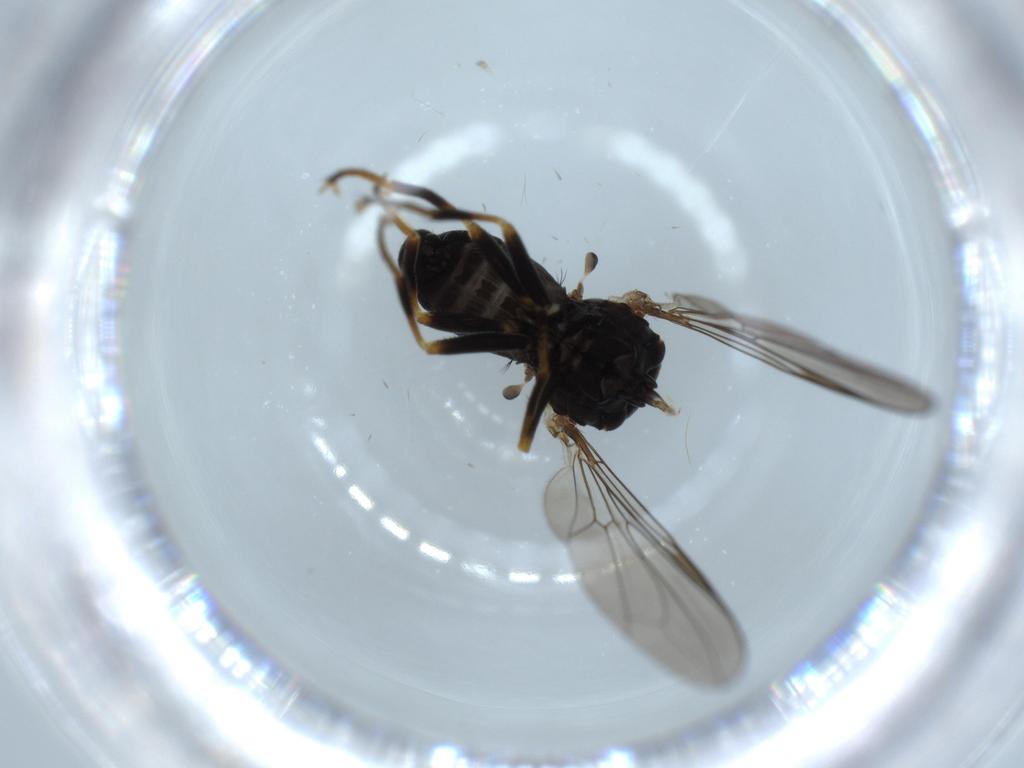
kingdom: Animalia
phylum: Arthropoda
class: Insecta
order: Diptera
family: Pipunculidae
